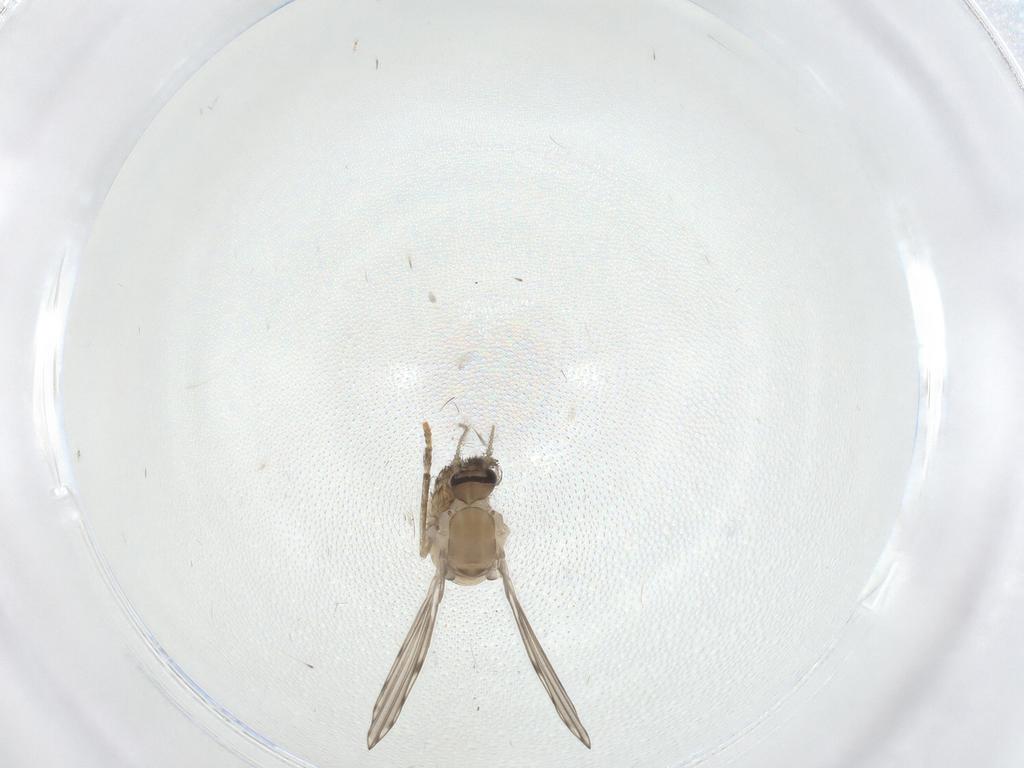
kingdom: Animalia
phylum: Arthropoda
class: Insecta
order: Diptera
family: Psychodidae
